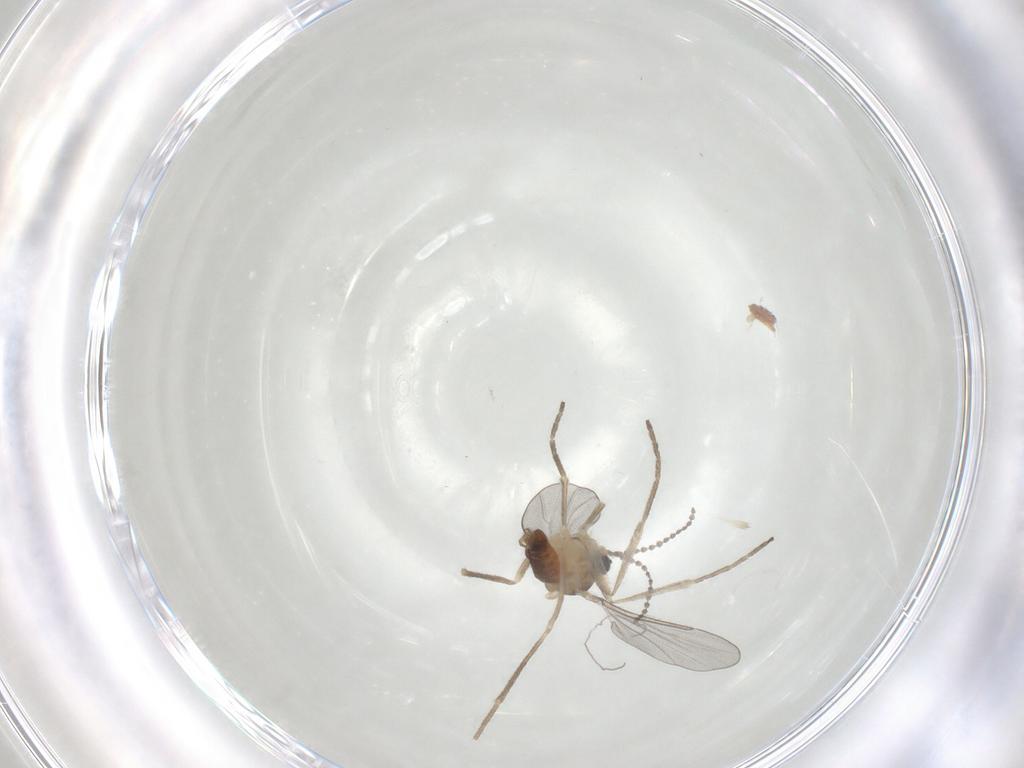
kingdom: Animalia
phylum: Arthropoda
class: Insecta
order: Diptera
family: Cecidomyiidae
